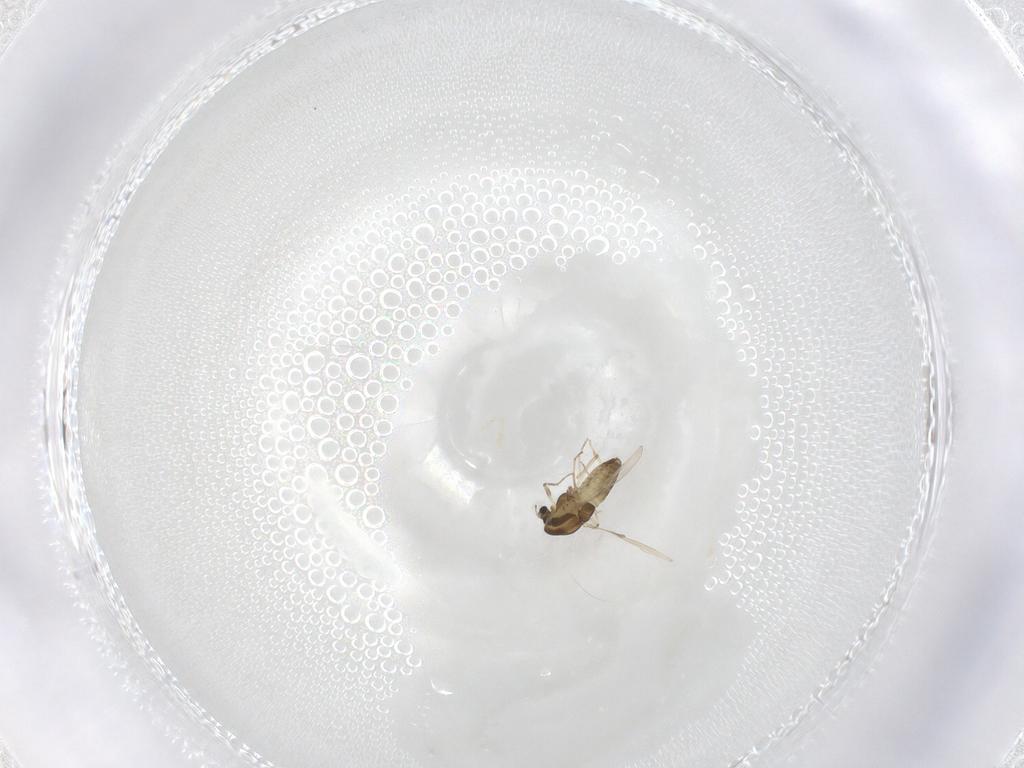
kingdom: Animalia
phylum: Arthropoda
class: Insecta
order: Diptera
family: Chironomidae
